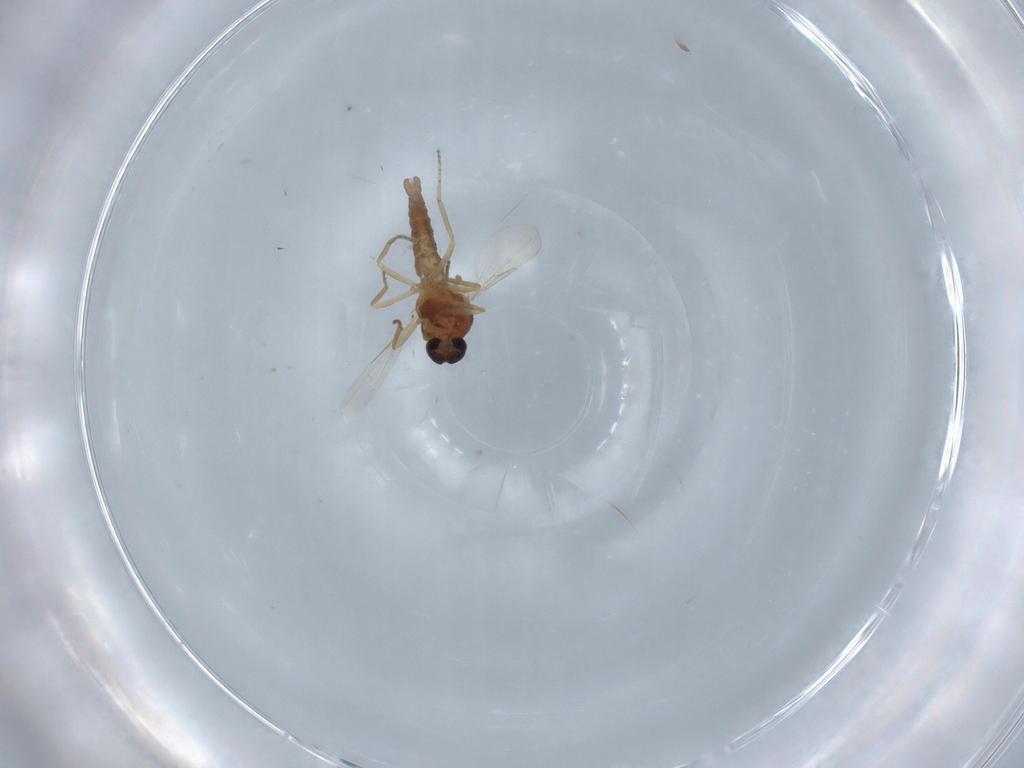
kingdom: Animalia
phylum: Arthropoda
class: Insecta
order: Diptera
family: Ceratopogonidae
